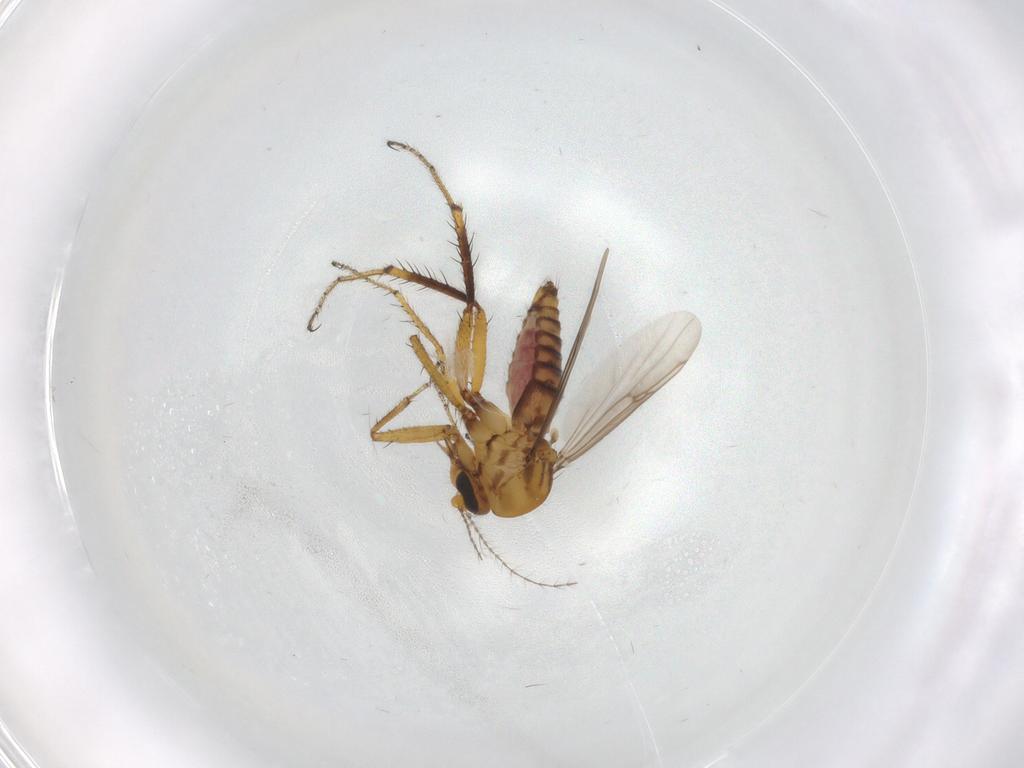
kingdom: Animalia
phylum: Arthropoda
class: Insecta
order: Diptera
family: Ceratopogonidae
